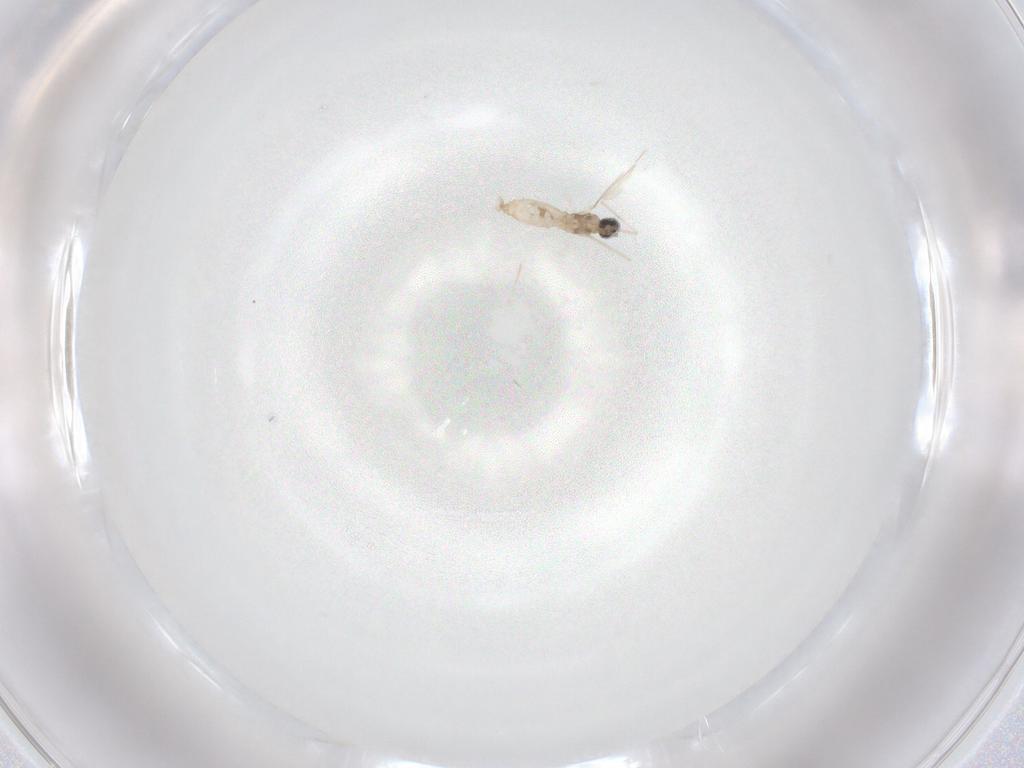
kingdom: Animalia
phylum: Arthropoda
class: Insecta
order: Diptera
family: Cecidomyiidae
